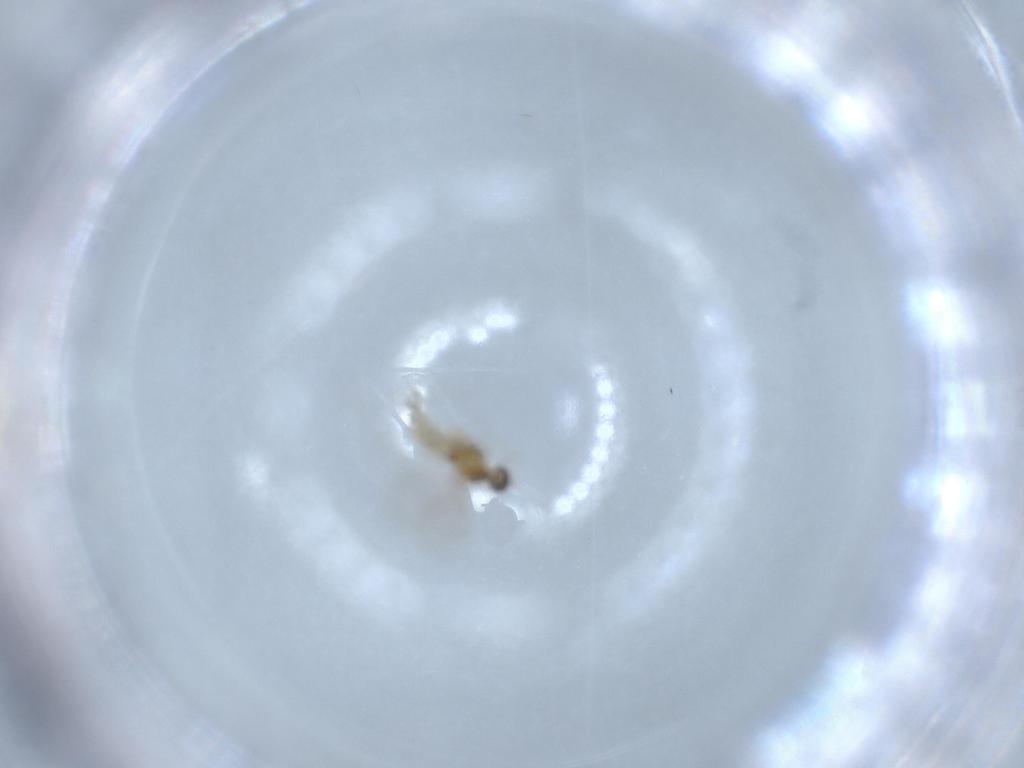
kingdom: Animalia
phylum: Arthropoda
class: Insecta
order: Diptera
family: Cecidomyiidae
